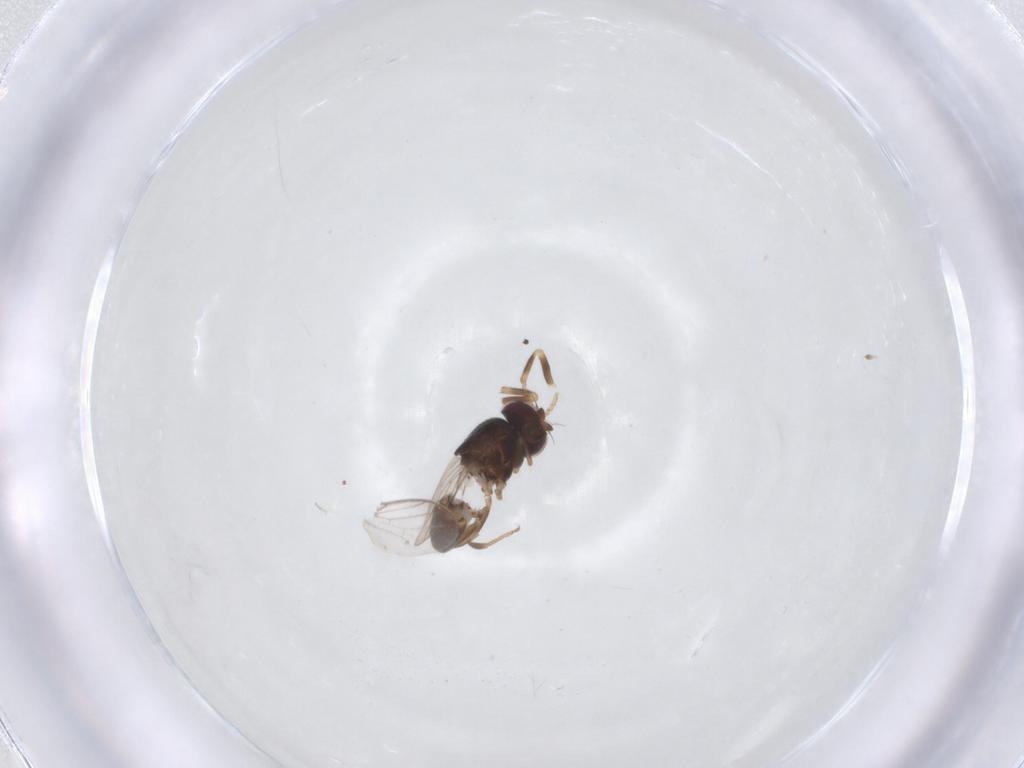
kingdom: Animalia
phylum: Arthropoda
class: Insecta
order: Diptera
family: Chloropidae
